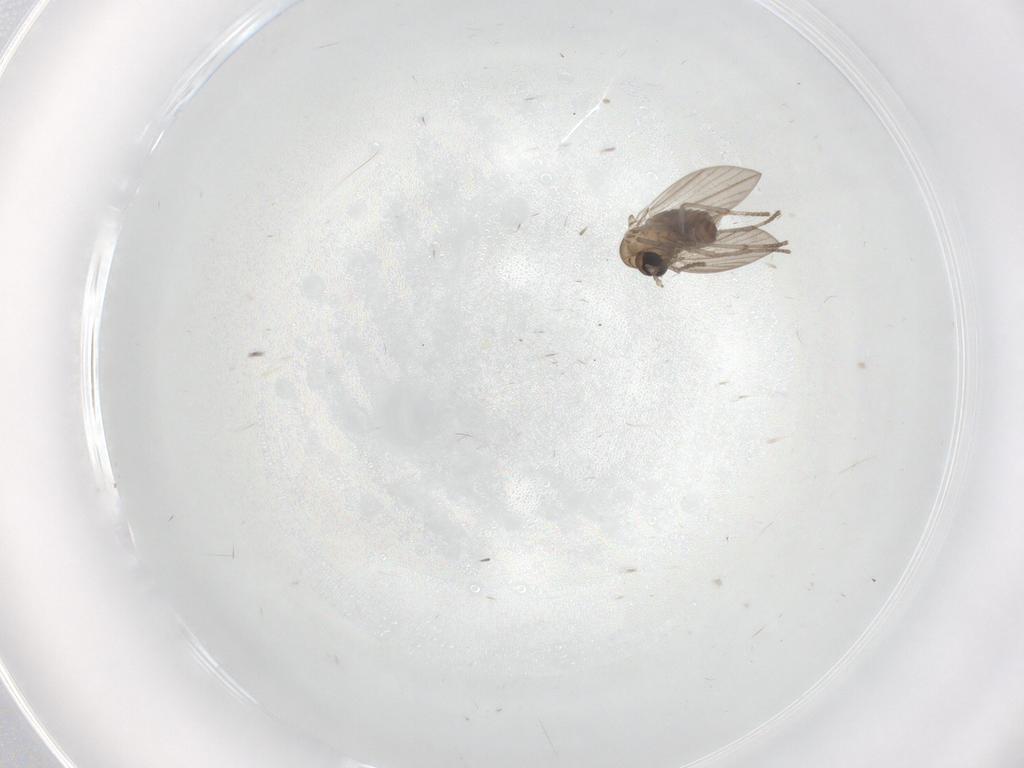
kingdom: Animalia
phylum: Arthropoda
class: Insecta
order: Diptera
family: Psychodidae
